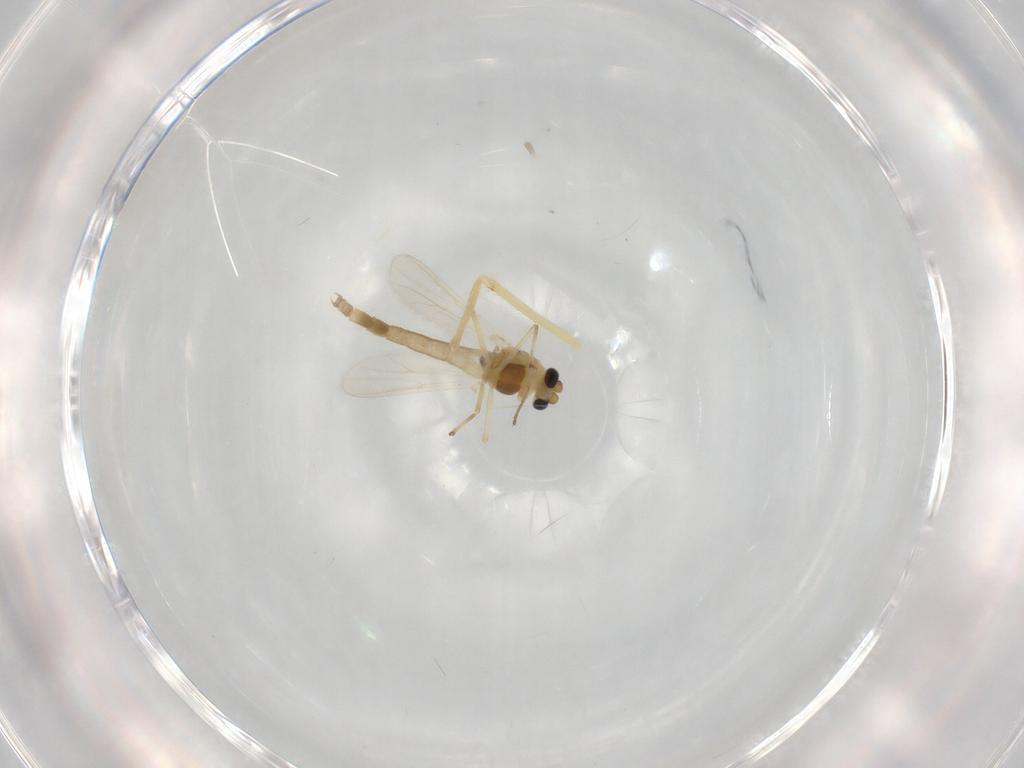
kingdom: Animalia
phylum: Arthropoda
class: Insecta
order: Diptera
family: Chironomidae
